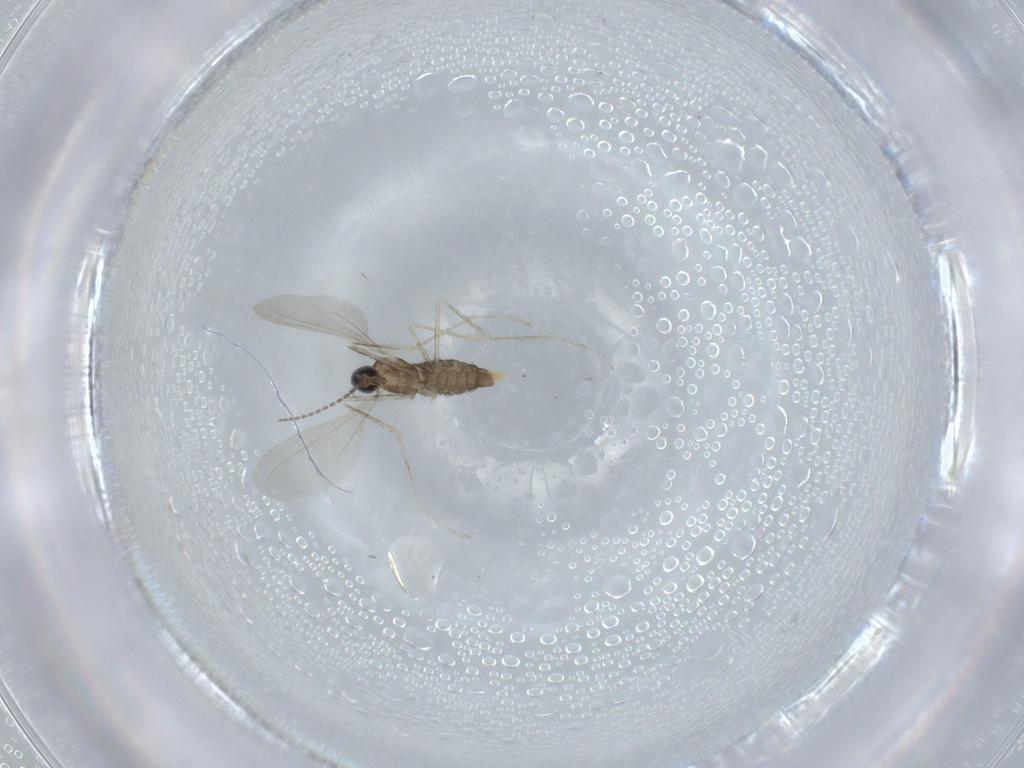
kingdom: Animalia
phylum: Arthropoda
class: Insecta
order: Diptera
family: Cecidomyiidae
